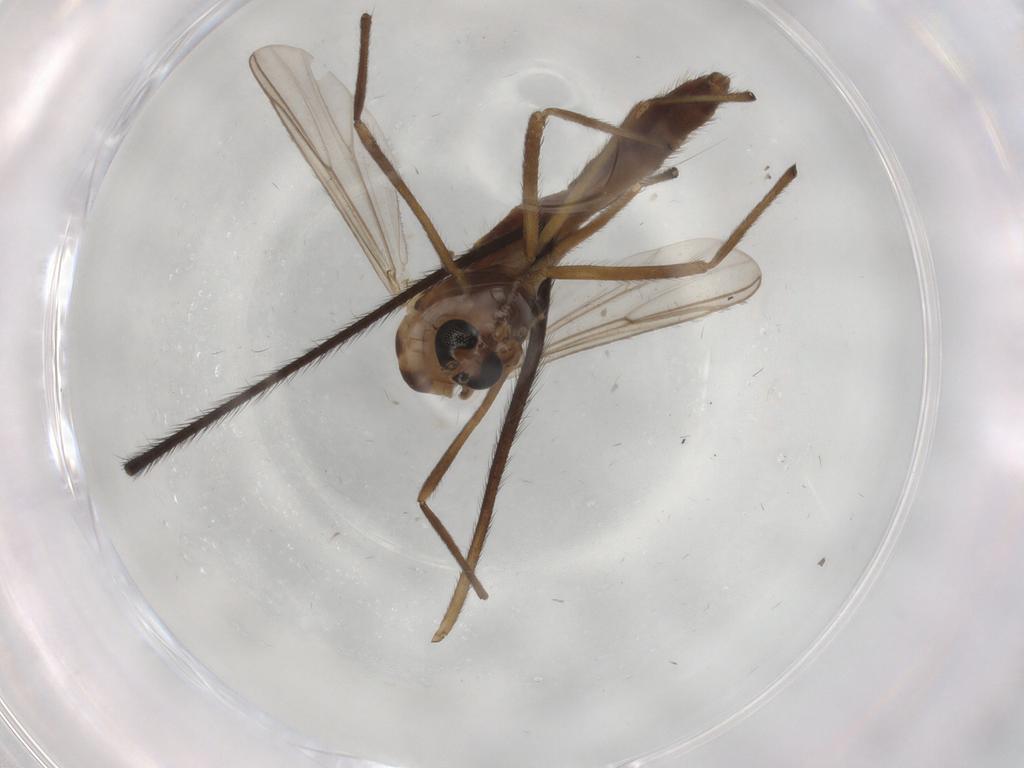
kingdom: Animalia
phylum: Arthropoda
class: Insecta
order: Diptera
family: Chironomidae
